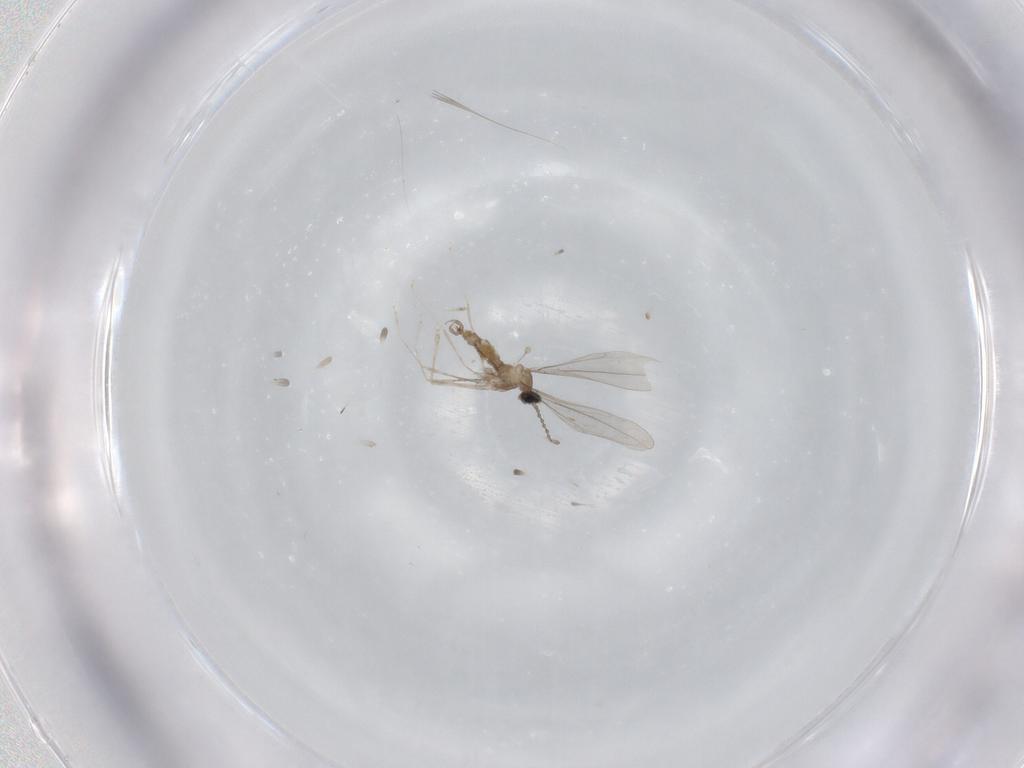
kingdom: Animalia
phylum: Arthropoda
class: Insecta
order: Diptera
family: Cecidomyiidae
